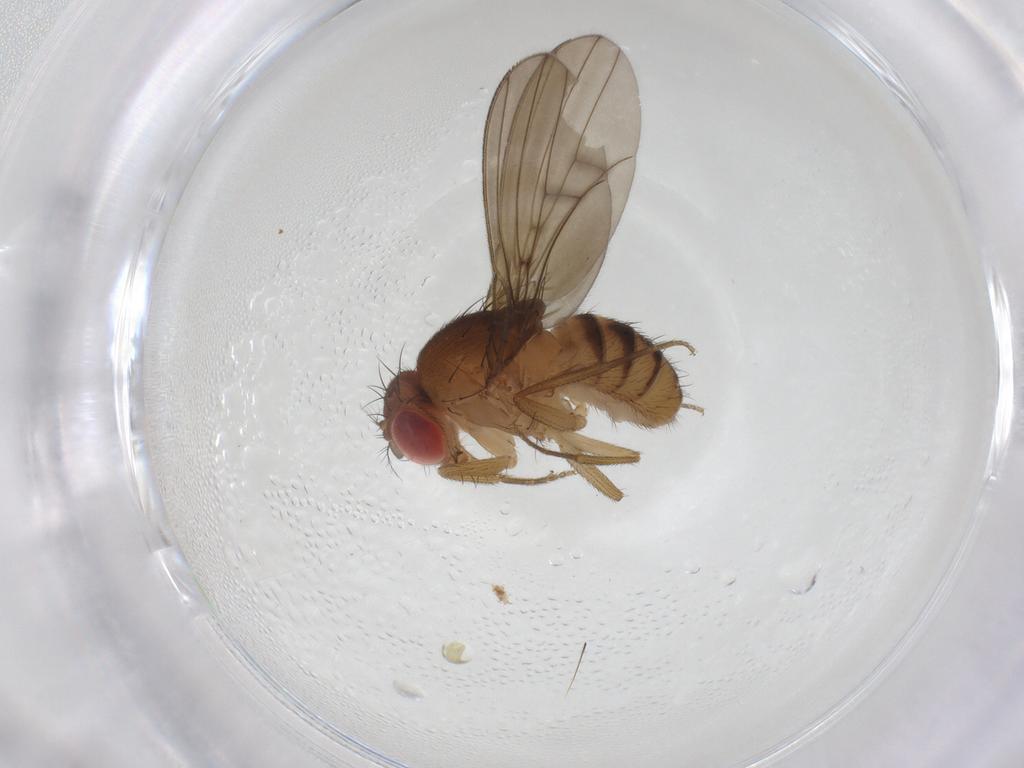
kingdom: Animalia
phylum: Arthropoda
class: Insecta
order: Diptera
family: Drosophilidae
